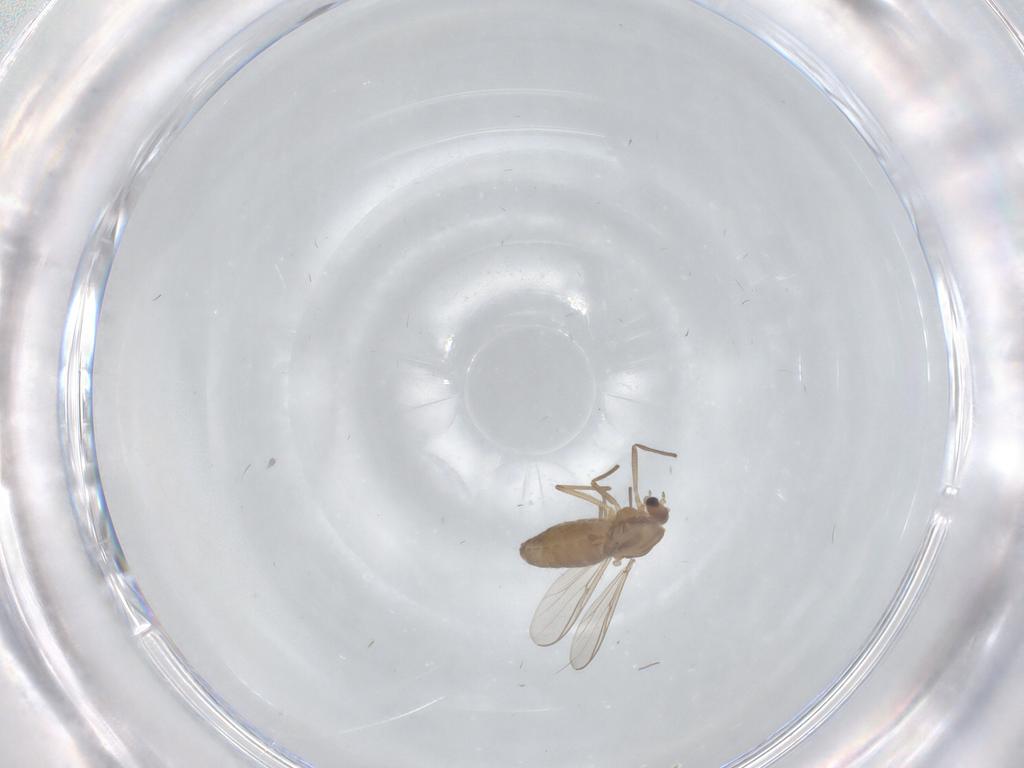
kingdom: Animalia
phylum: Arthropoda
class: Insecta
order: Diptera
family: Chironomidae
